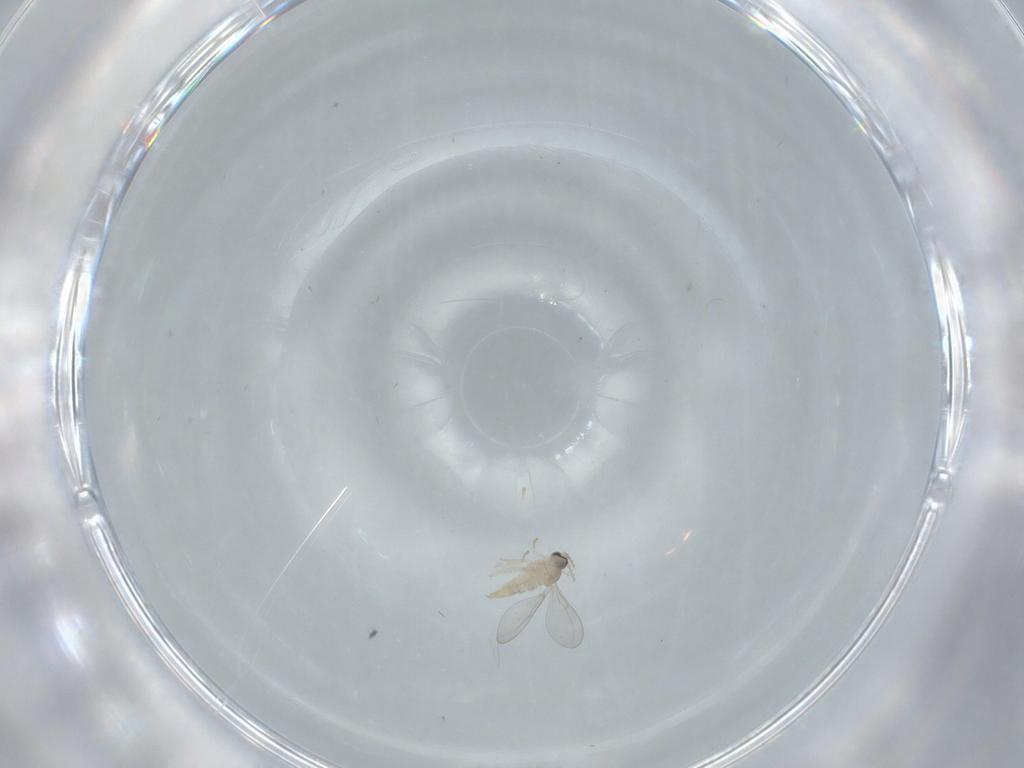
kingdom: Animalia
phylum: Arthropoda
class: Insecta
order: Diptera
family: Cecidomyiidae
